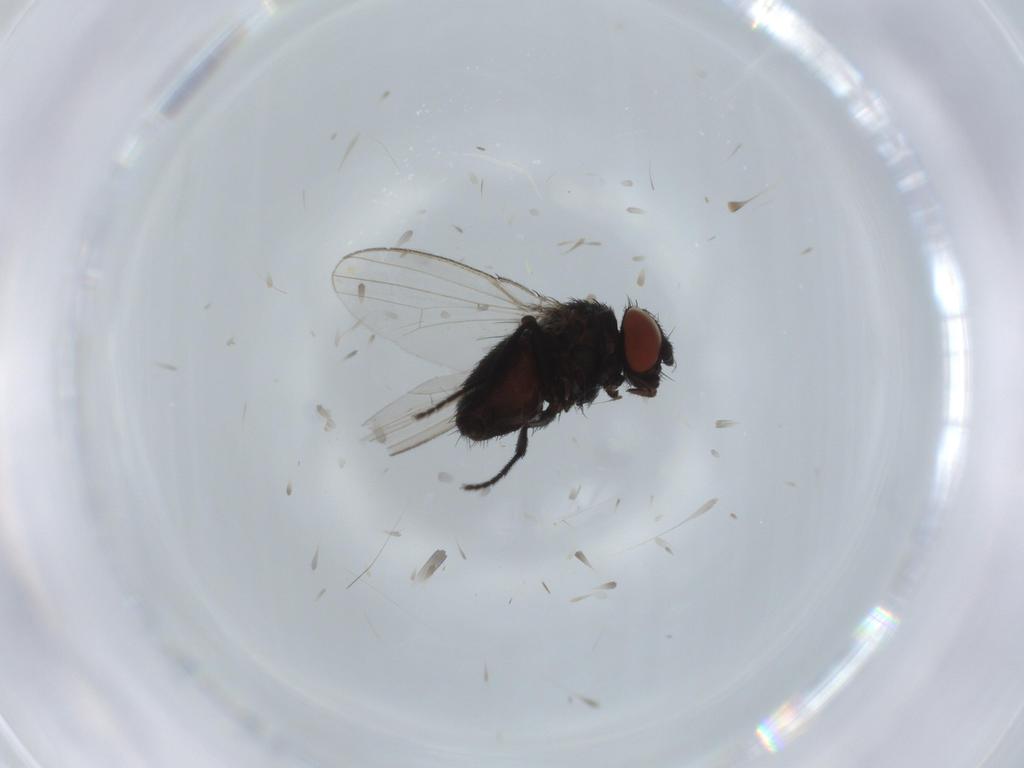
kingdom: Animalia
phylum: Arthropoda
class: Insecta
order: Diptera
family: Milichiidae
